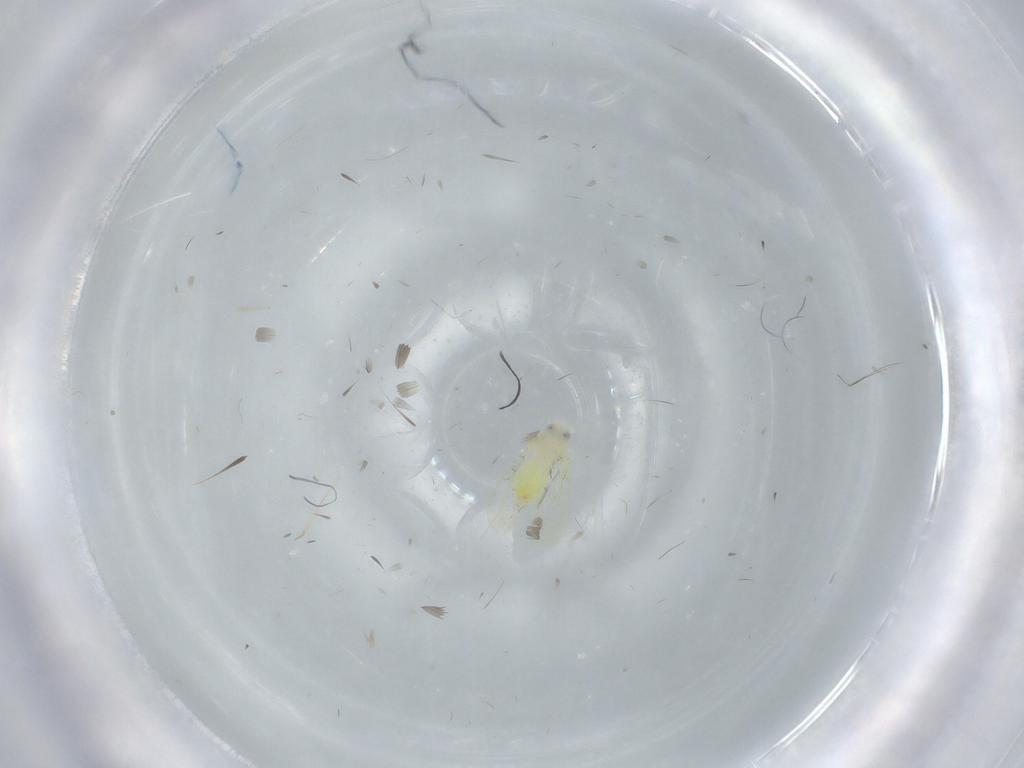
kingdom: Animalia
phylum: Arthropoda
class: Insecta
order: Hemiptera
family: Aleyrodidae
